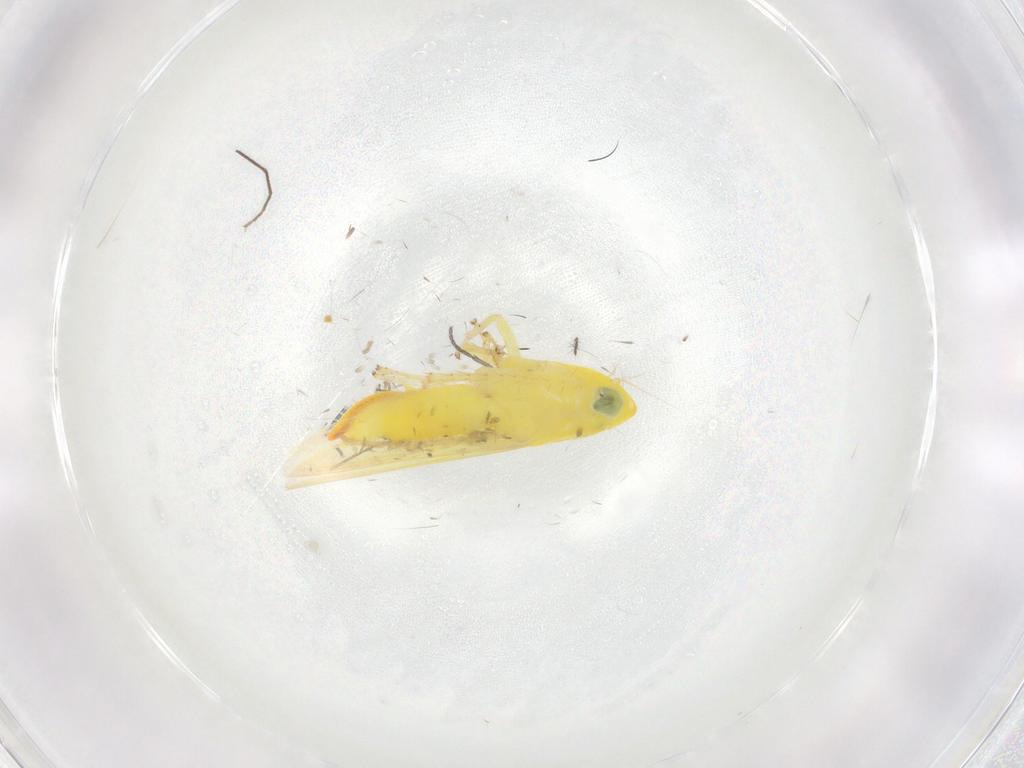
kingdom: Animalia
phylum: Arthropoda
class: Insecta
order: Hemiptera
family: Cicadellidae
